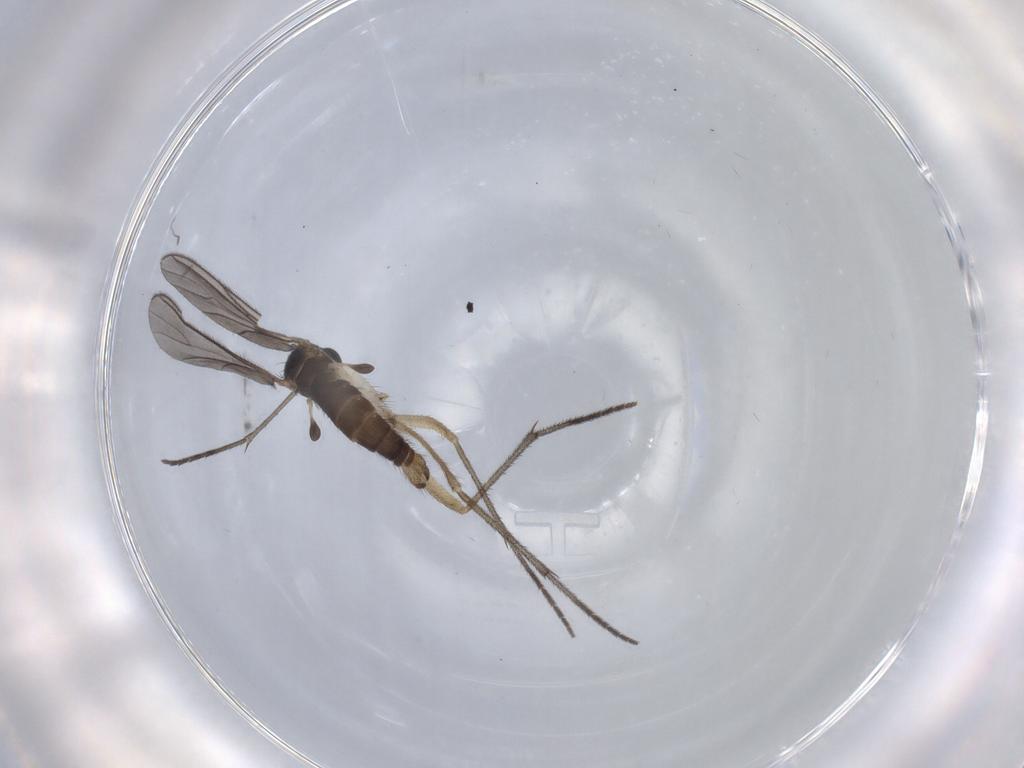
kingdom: Animalia
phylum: Arthropoda
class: Insecta
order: Diptera
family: Sciaridae
